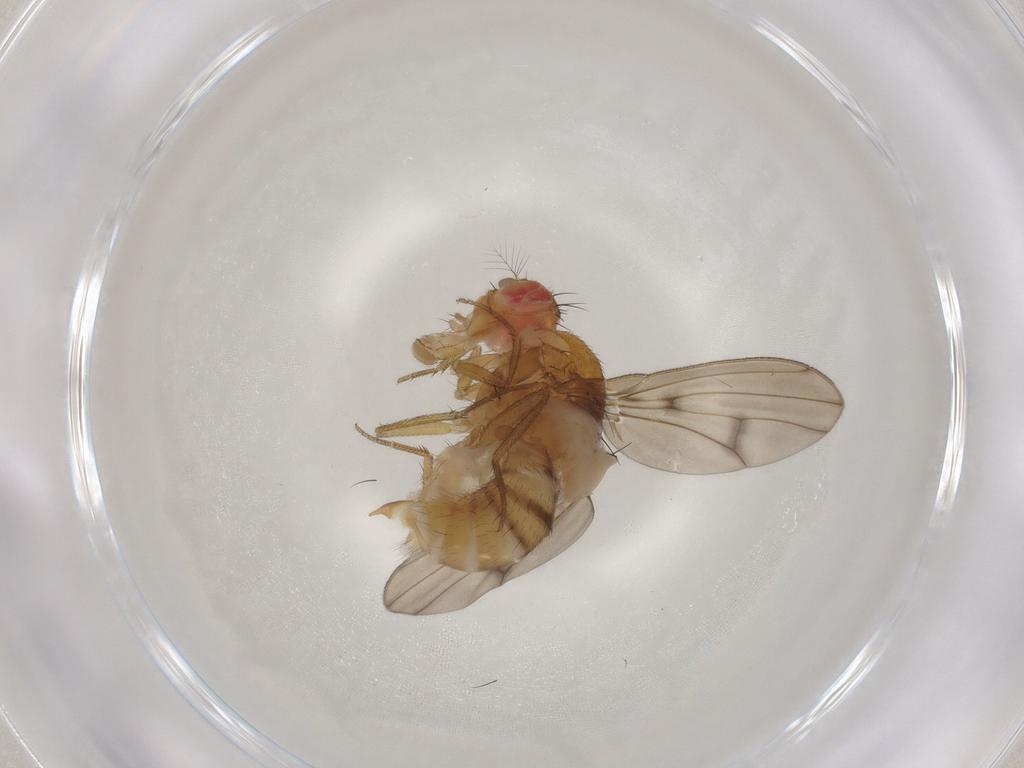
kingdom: Animalia
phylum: Arthropoda
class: Insecta
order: Diptera
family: Drosophilidae
